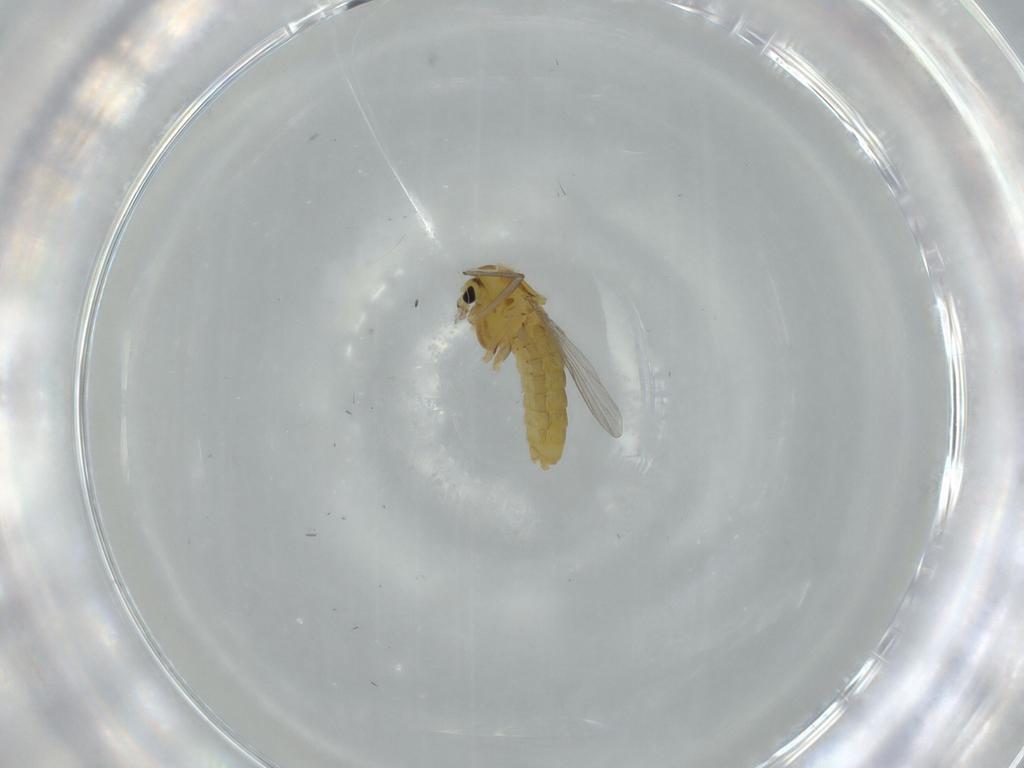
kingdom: Animalia
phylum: Arthropoda
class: Insecta
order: Diptera
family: Chironomidae
